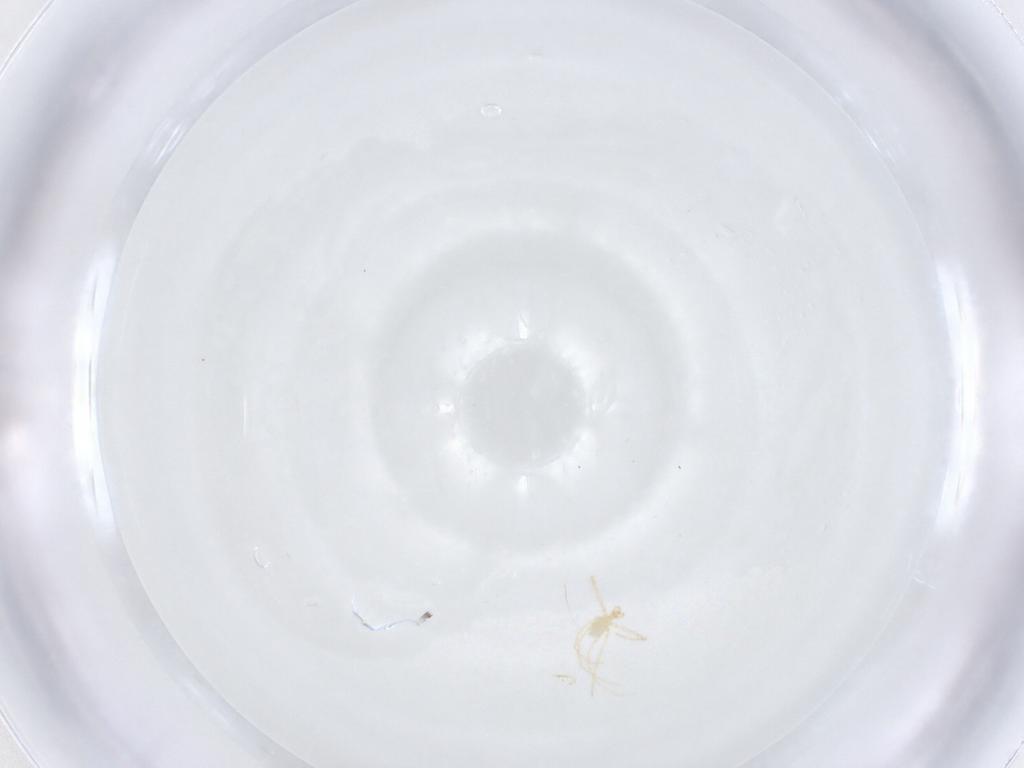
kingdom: Animalia
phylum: Arthropoda
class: Arachnida
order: Trombidiformes
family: Erythraeidae
